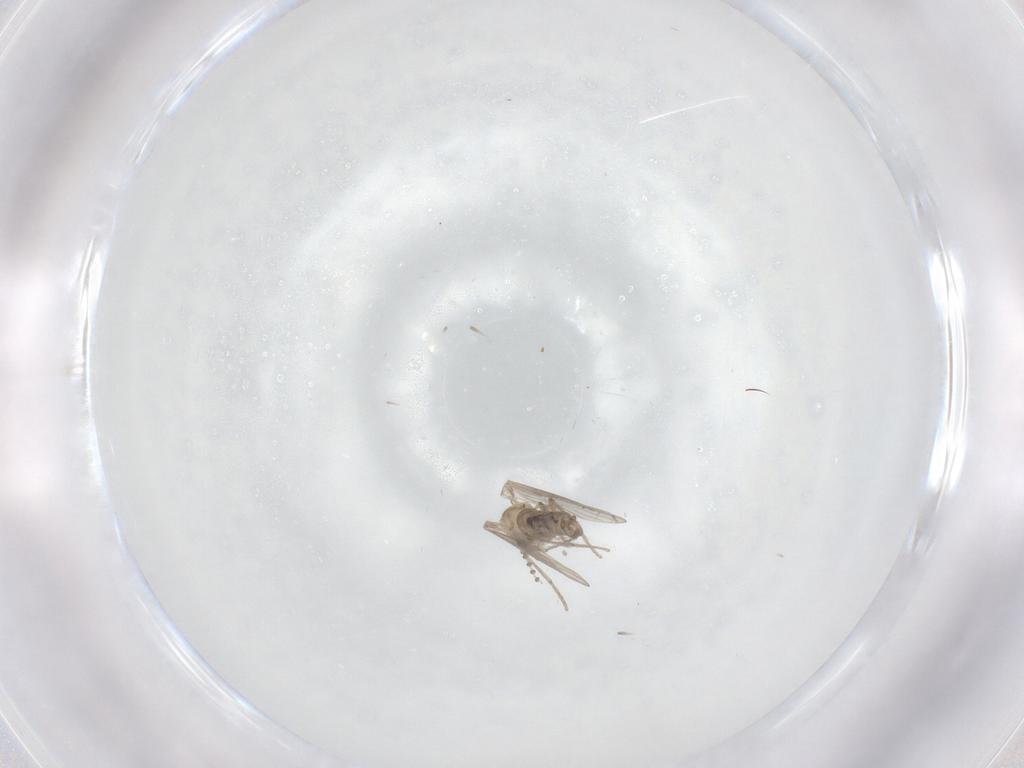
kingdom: Animalia
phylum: Arthropoda
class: Insecta
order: Diptera
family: Psychodidae
